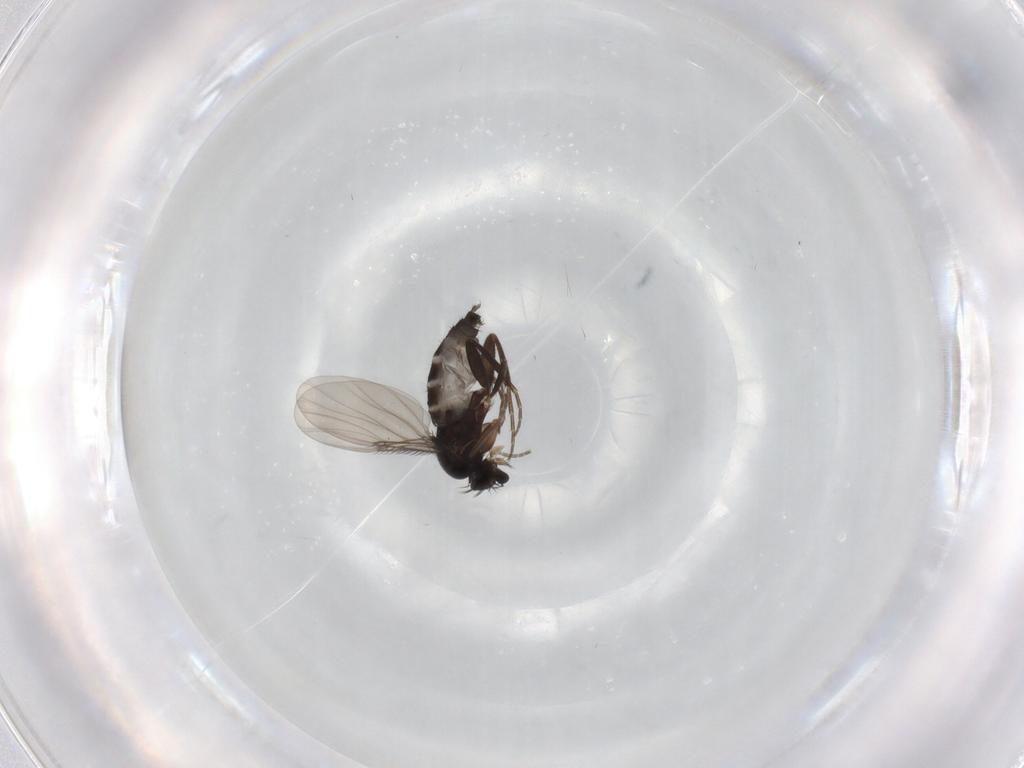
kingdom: Animalia
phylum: Arthropoda
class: Insecta
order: Diptera
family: Phoridae
